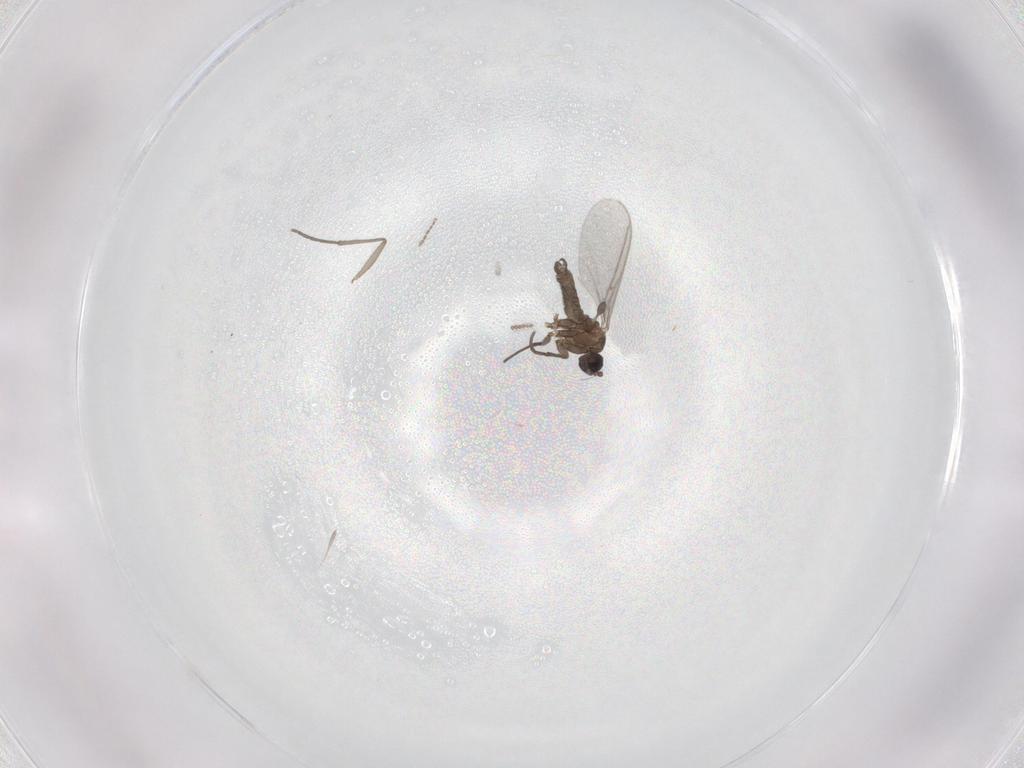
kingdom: Animalia
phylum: Arthropoda
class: Insecta
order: Diptera
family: Sciaridae
